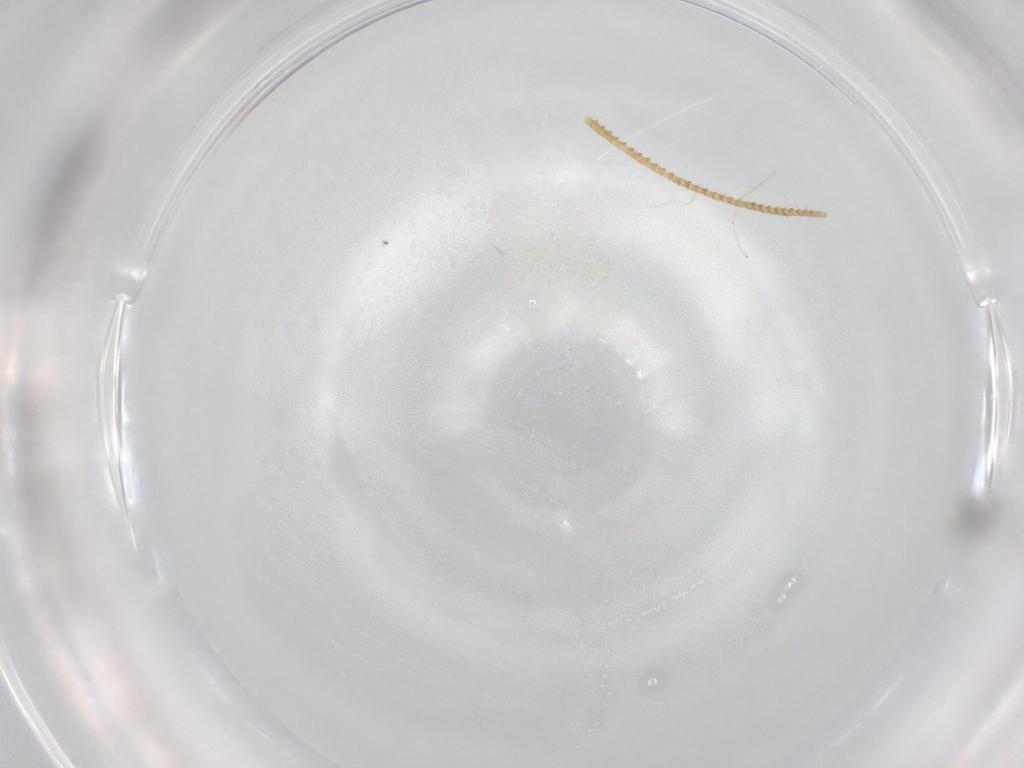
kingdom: Animalia
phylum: Arthropoda
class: Insecta
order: Diptera
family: Cecidomyiidae
